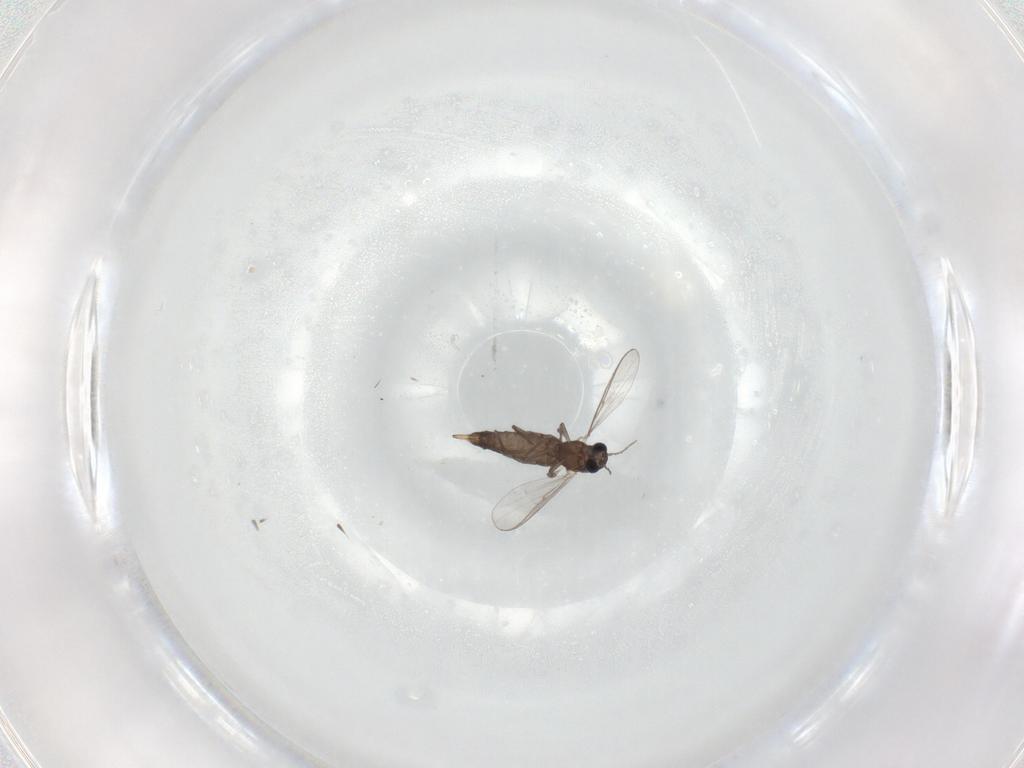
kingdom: Animalia
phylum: Arthropoda
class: Insecta
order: Diptera
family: Chironomidae
